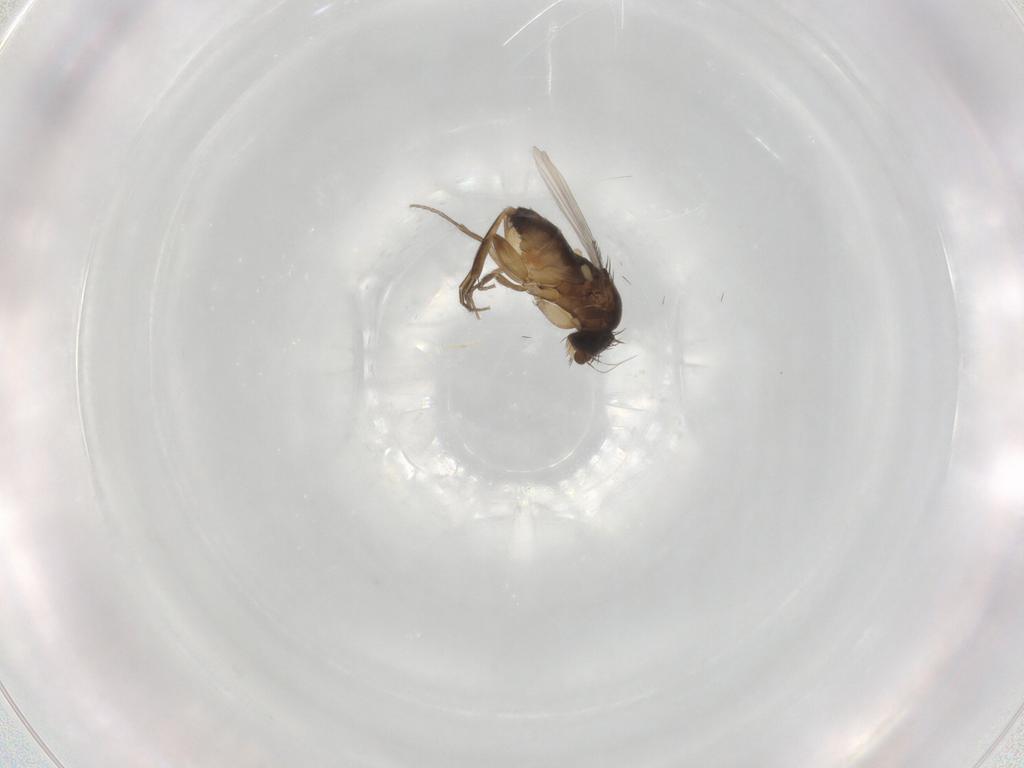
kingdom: Animalia
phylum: Arthropoda
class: Insecta
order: Diptera
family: Phoridae
